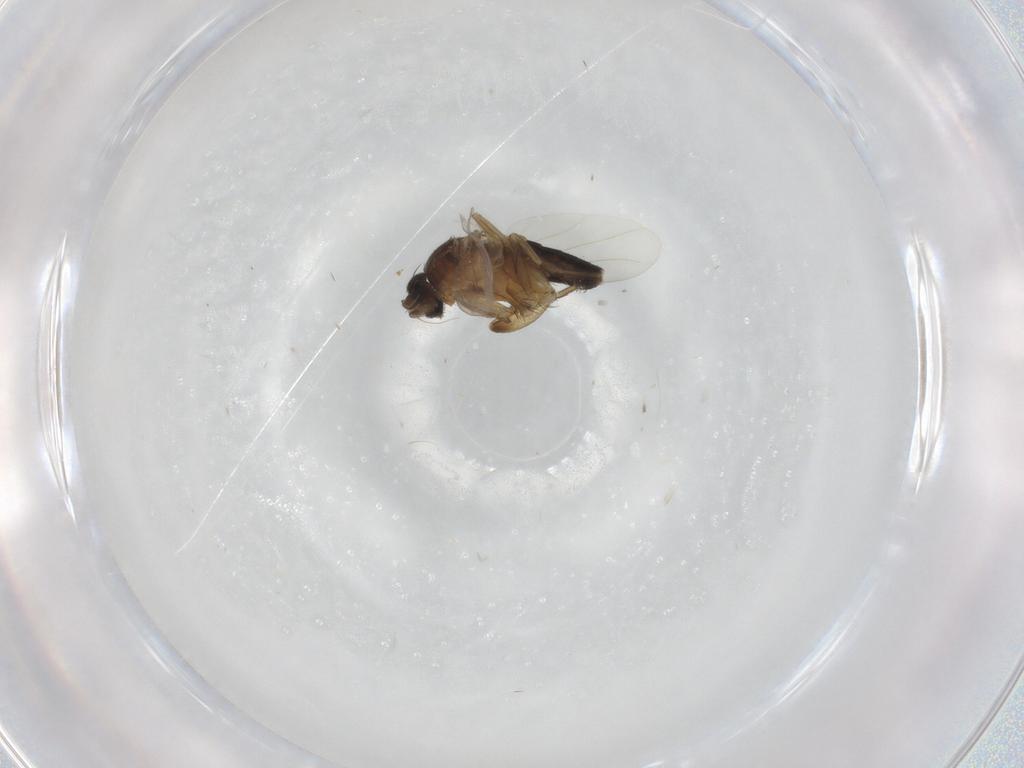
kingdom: Animalia
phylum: Arthropoda
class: Insecta
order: Diptera
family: Phoridae
